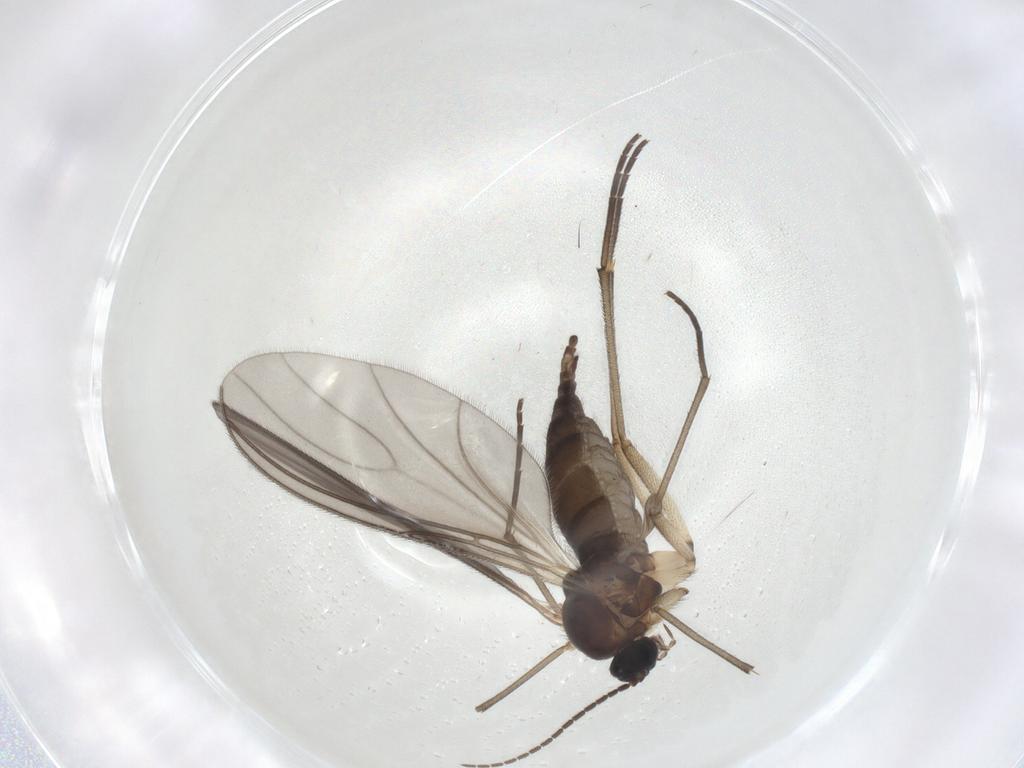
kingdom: Animalia
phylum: Arthropoda
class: Insecta
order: Diptera
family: Sciaridae
